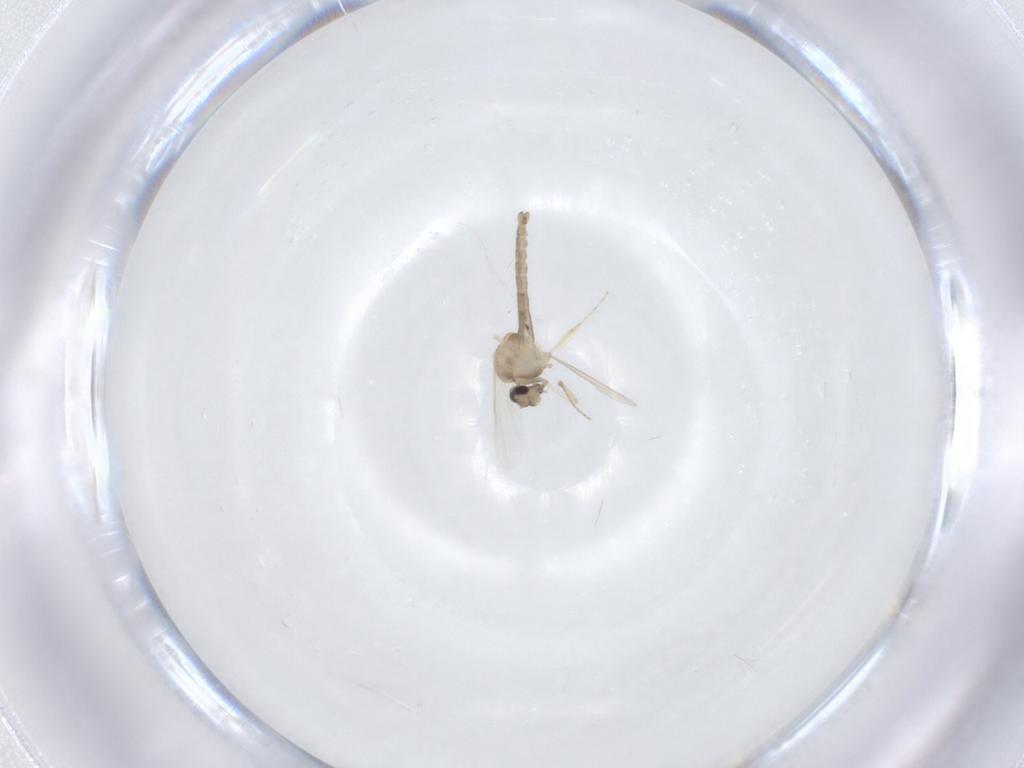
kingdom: Animalia
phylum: Arthropoda
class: Insecta
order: Diptera
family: Ceratopogonidae
